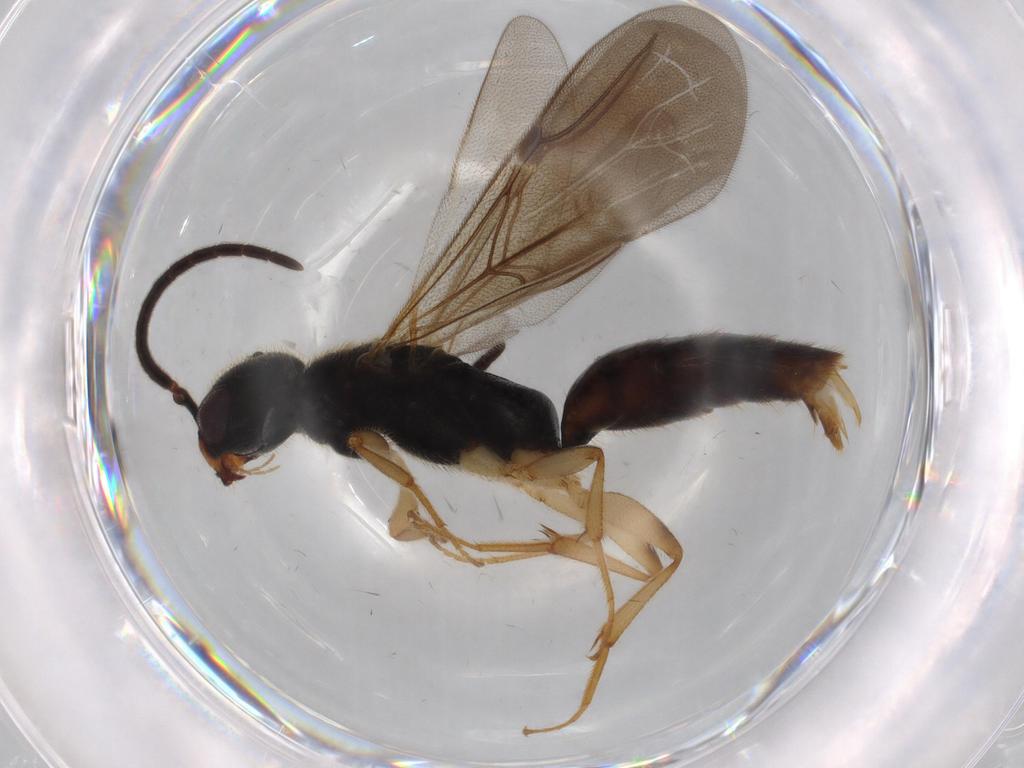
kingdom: Animalia
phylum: Arthropoda
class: Insecta
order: Hymenoptera
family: Bethylidae
